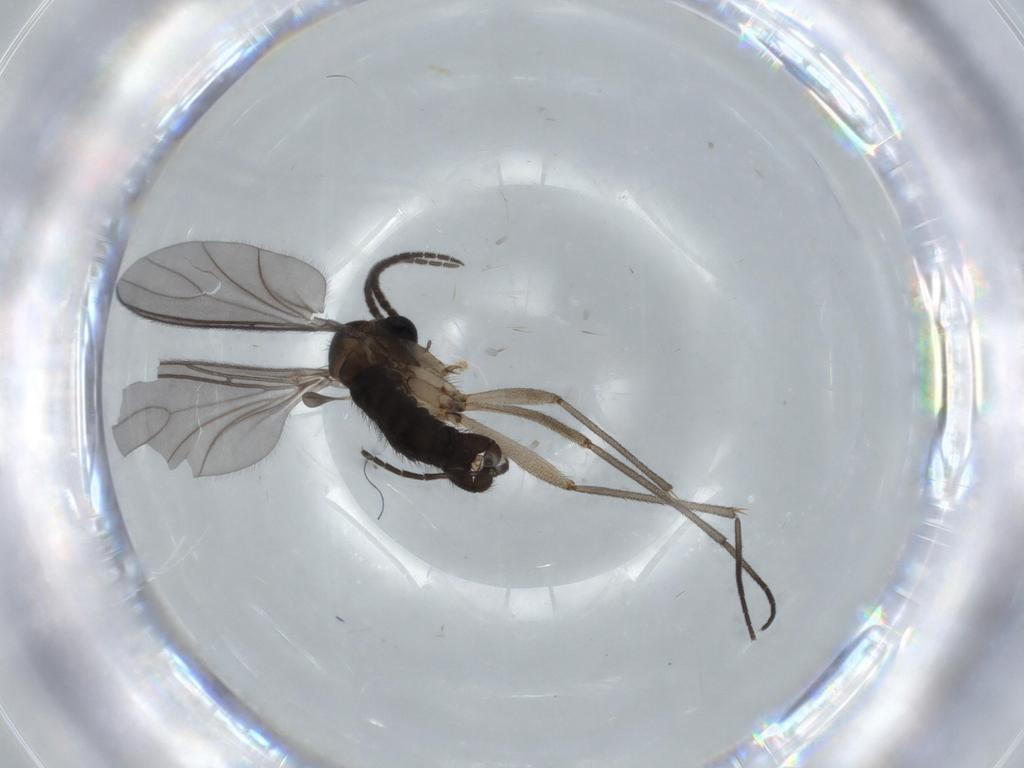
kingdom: Animalia
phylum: Arthropoda
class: Insecta
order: Diptera
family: Sciaridae
